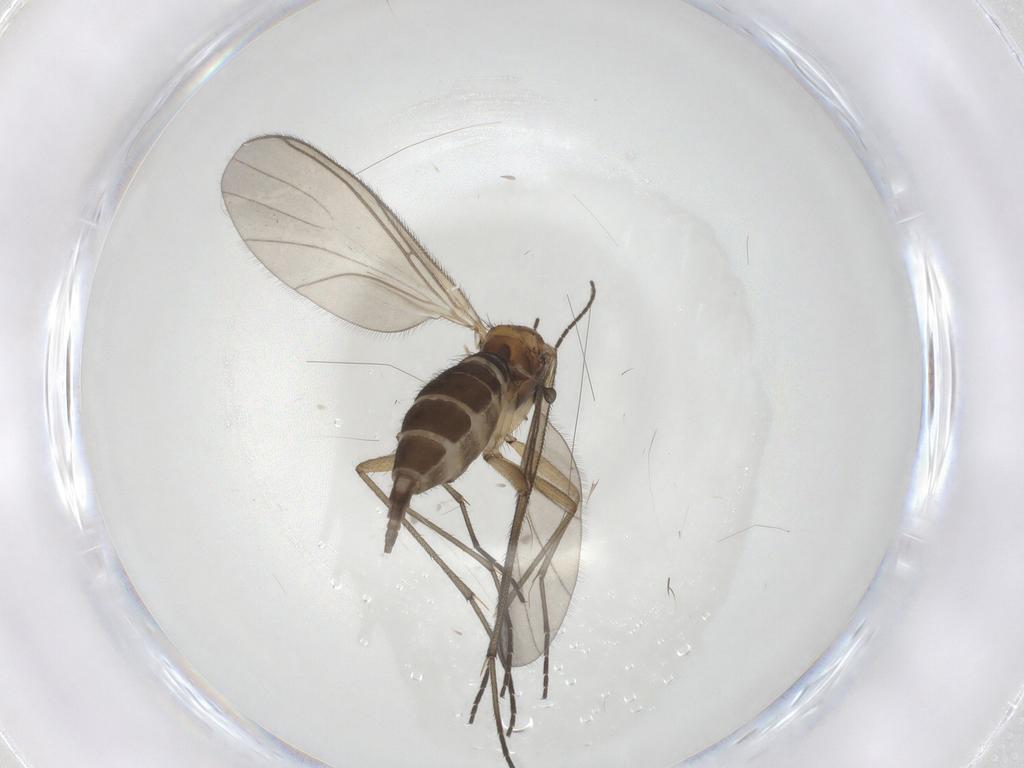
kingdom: Animalia
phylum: Arthropoda
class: Insecta
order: Diptera
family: Sciaridae
